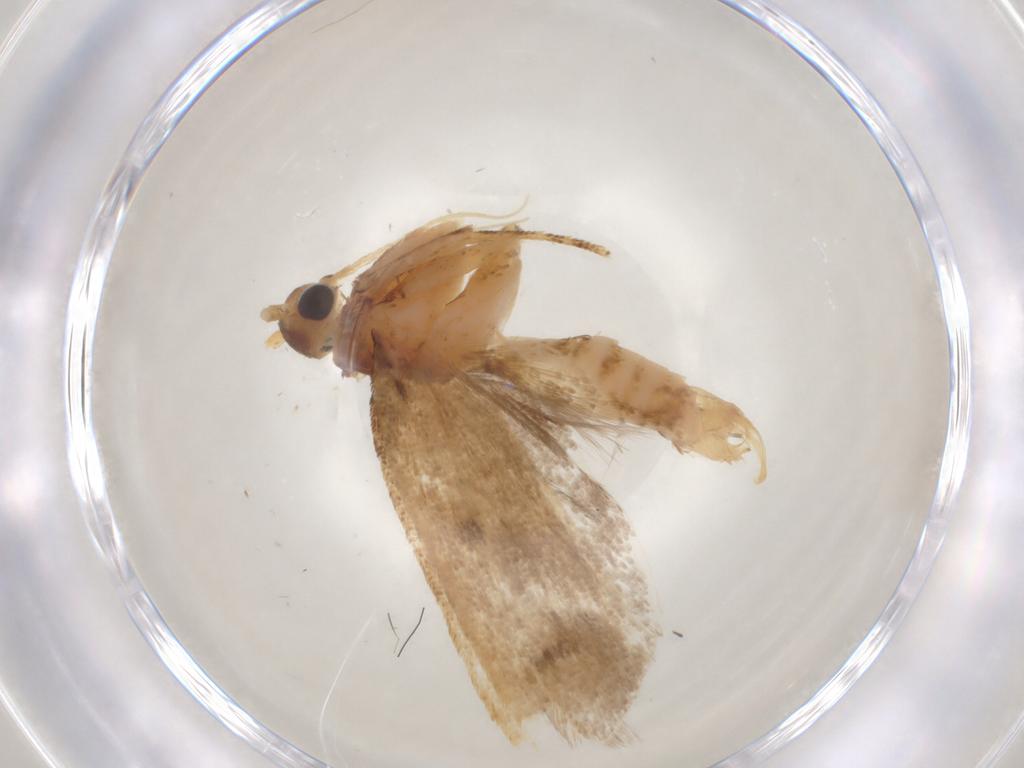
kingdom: Animalia
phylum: Arthropoda
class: Insecta
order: Lepidoptera
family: Lecithoceridae
